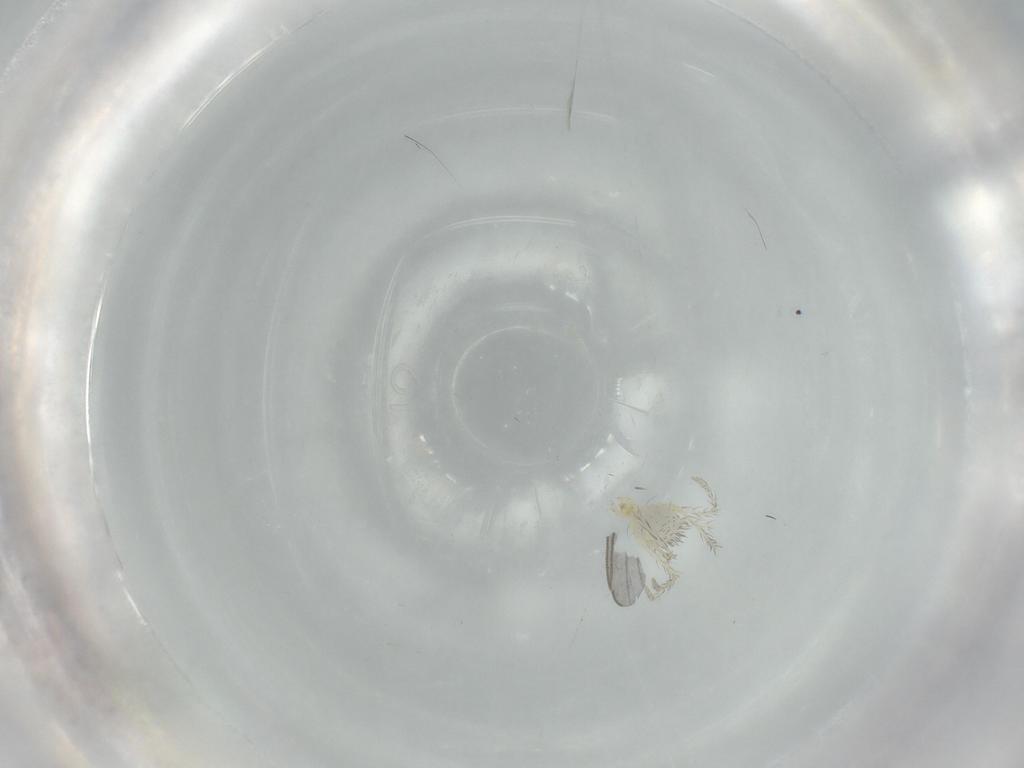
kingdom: Animalia
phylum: Arthropoda
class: Arachnida
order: Trombidiformes
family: Erythraeidae
